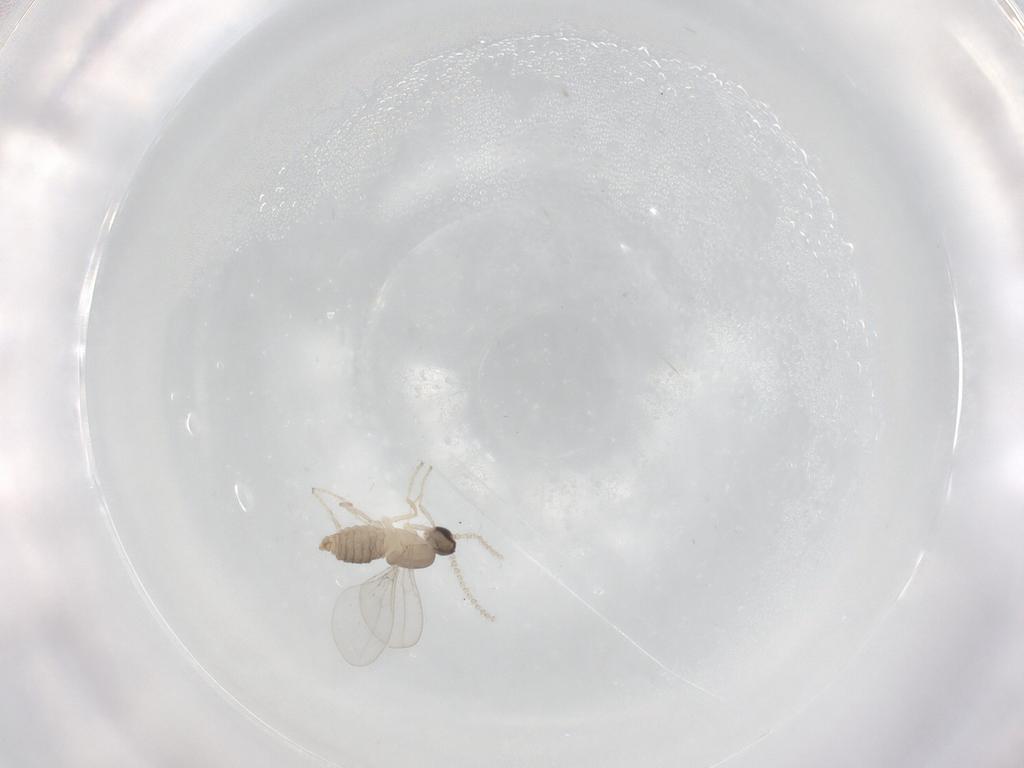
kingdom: Animalia
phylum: Arthropoda
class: Insecta
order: Diptera
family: Cecidomyiidae
